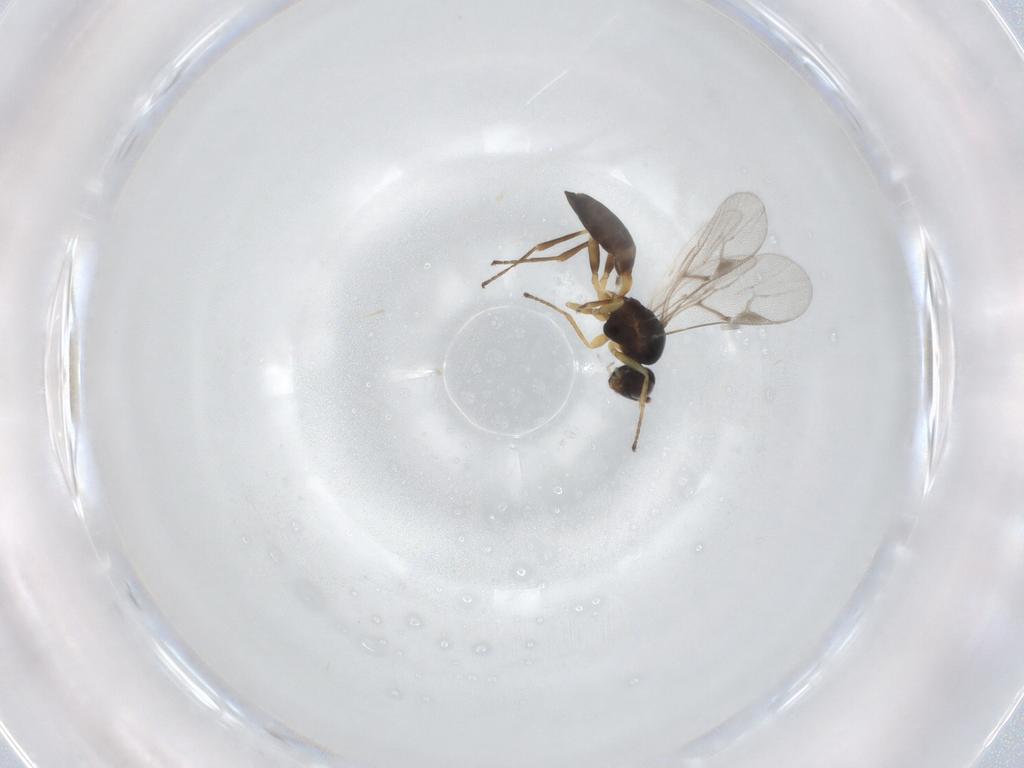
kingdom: Animalia
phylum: Arthropoda
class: Insecta
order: Hymenoptera
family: Braconidae
